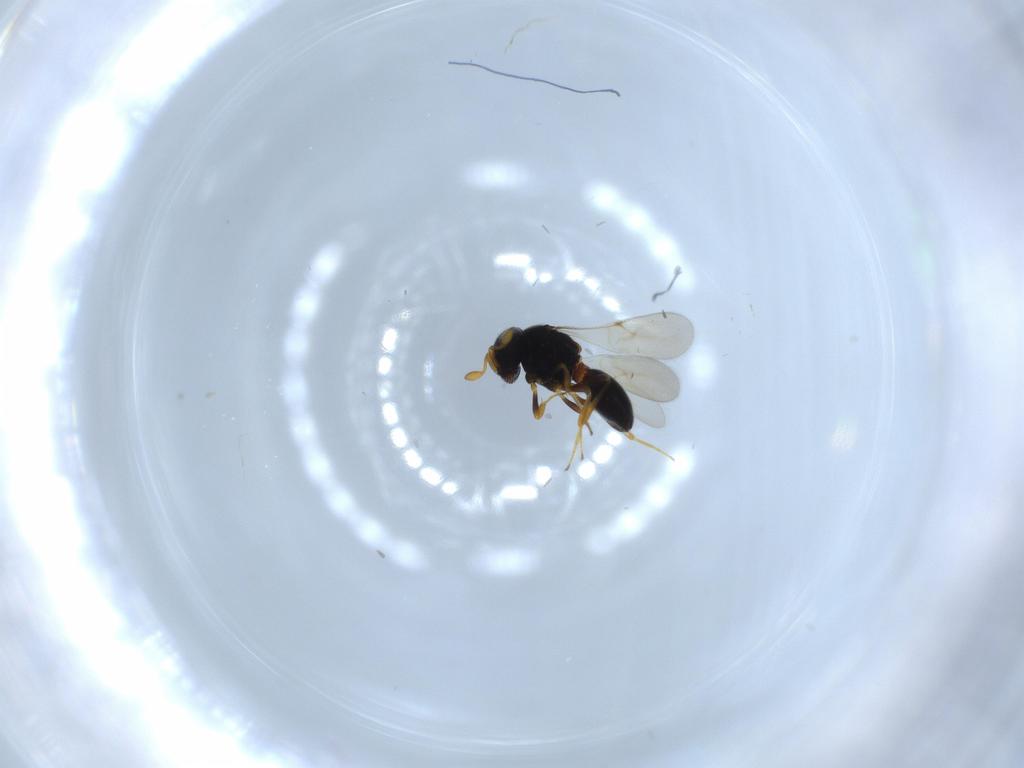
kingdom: Animalia
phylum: Arthropoda
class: Insecta
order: Hymenoptera
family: Scelionidae
